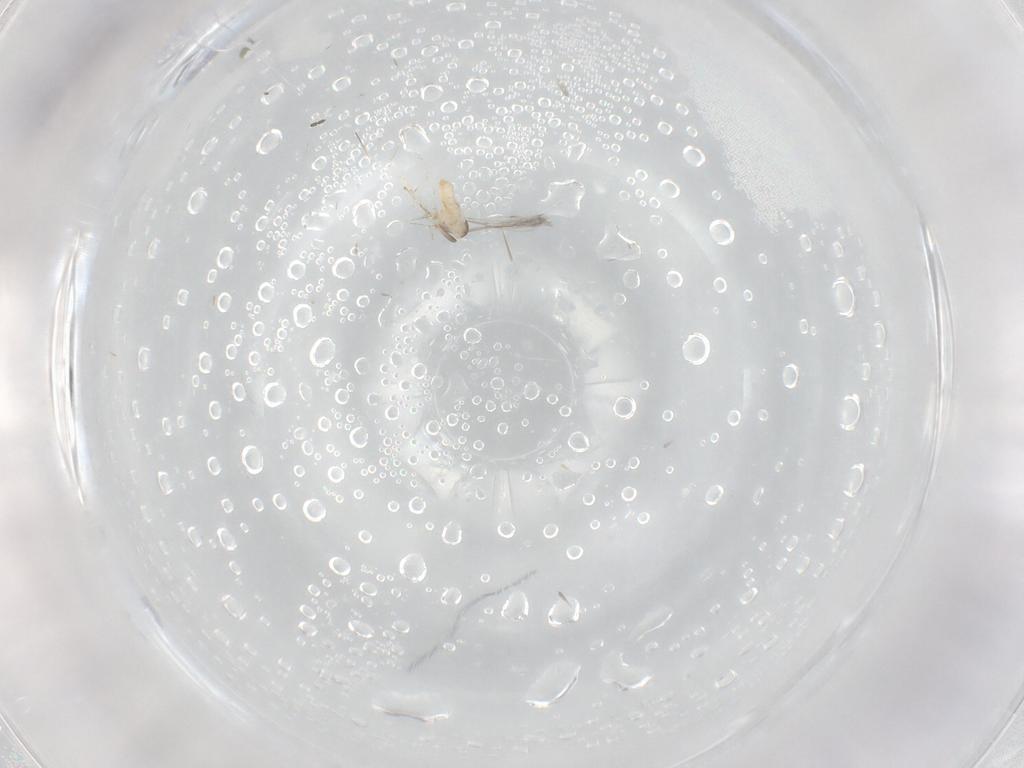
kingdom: Animalia
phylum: Arthropoda
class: Insecta
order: Diptera
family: Cecidomyiidae
